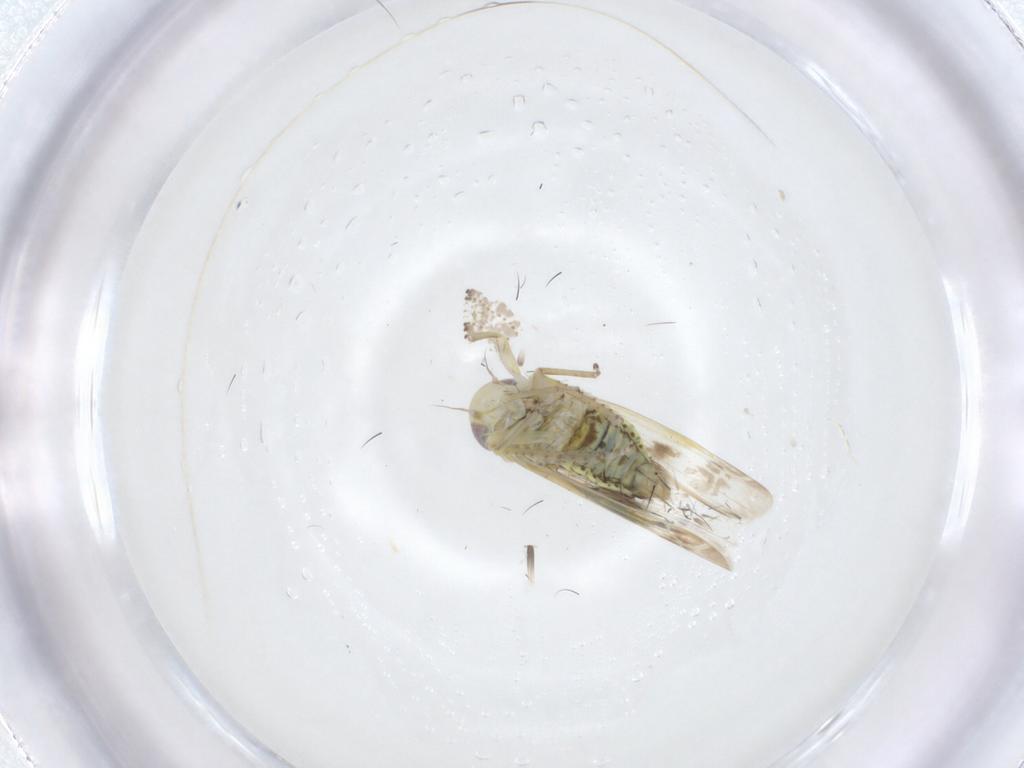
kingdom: Animalia
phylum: Arthropoda
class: Insecta
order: Hemiptera
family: Cicadellidae
